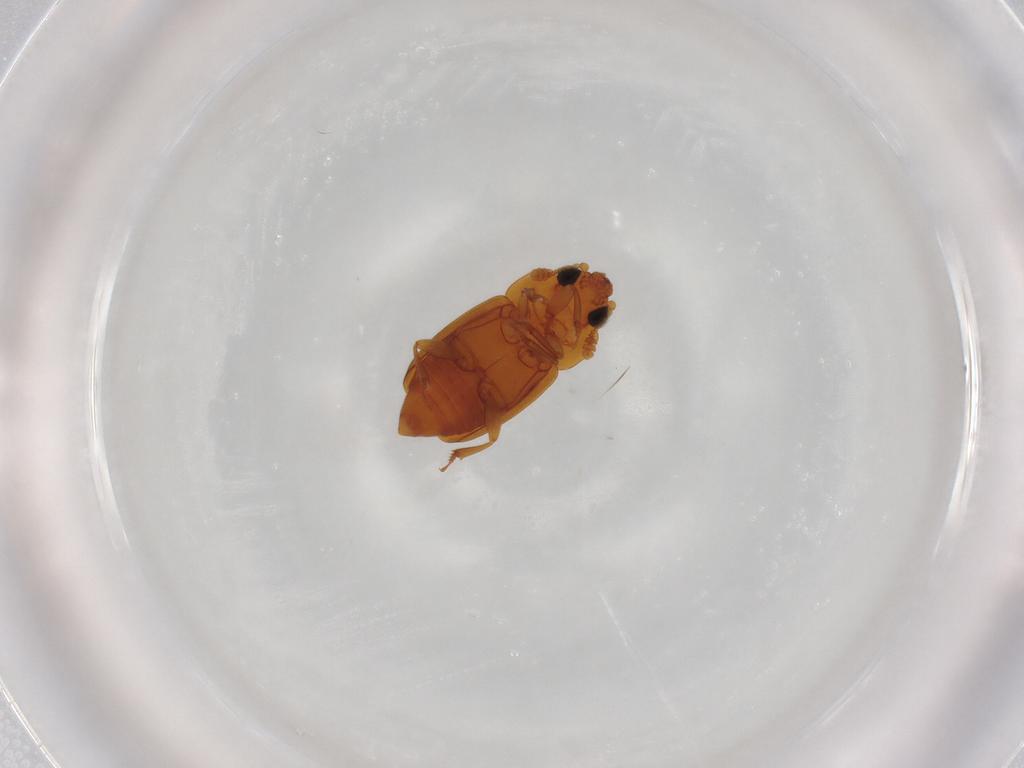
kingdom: Animalia
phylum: Arthropoda
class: Insecta
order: Coleoptera
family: Nitidulidae
